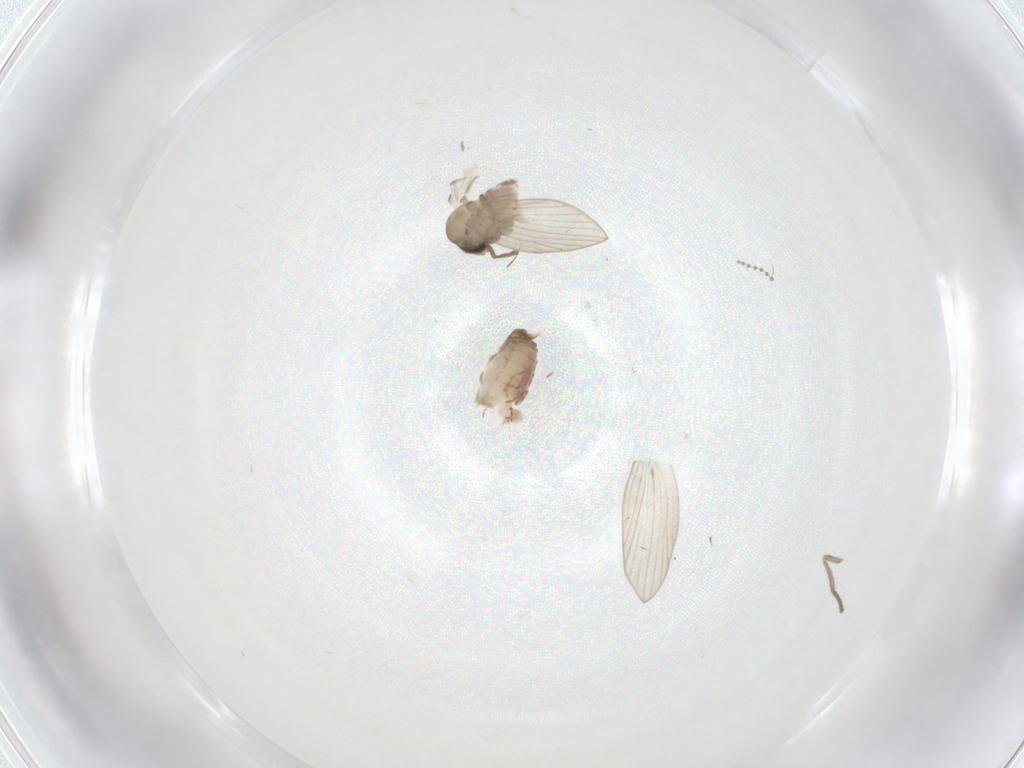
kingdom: Animalia
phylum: Arthropoda
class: Insecta
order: Diptera
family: Psychodidae
